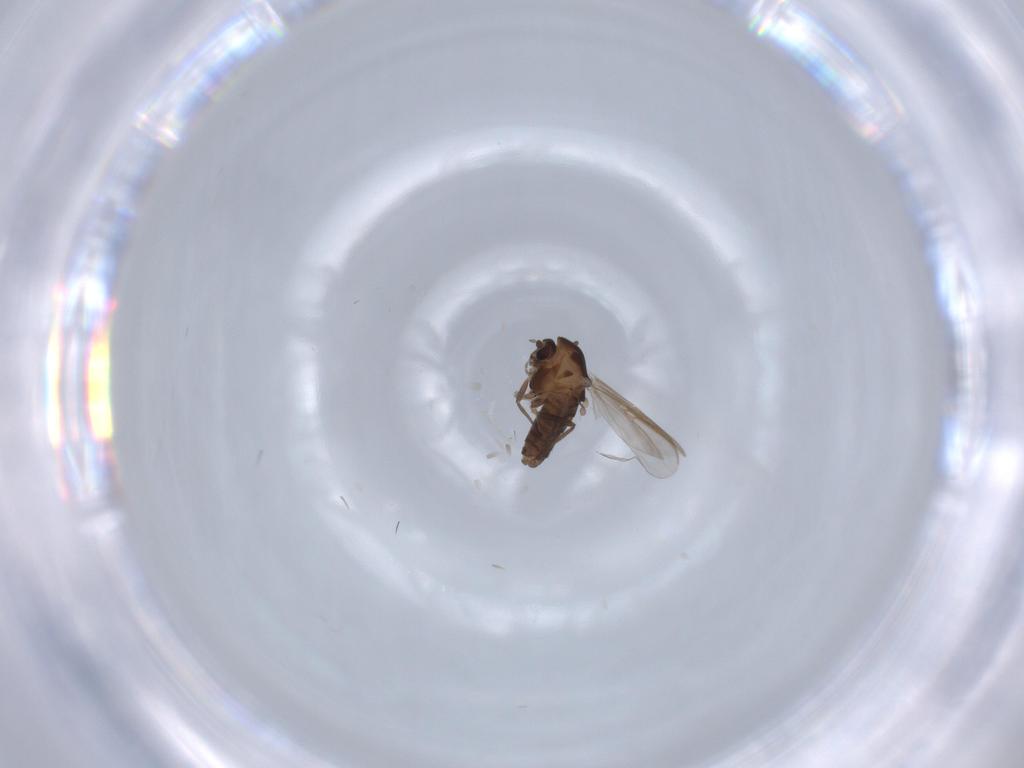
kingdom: Animalia
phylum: Arthropoda
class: Insecta
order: Diptera
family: Chironomidae
